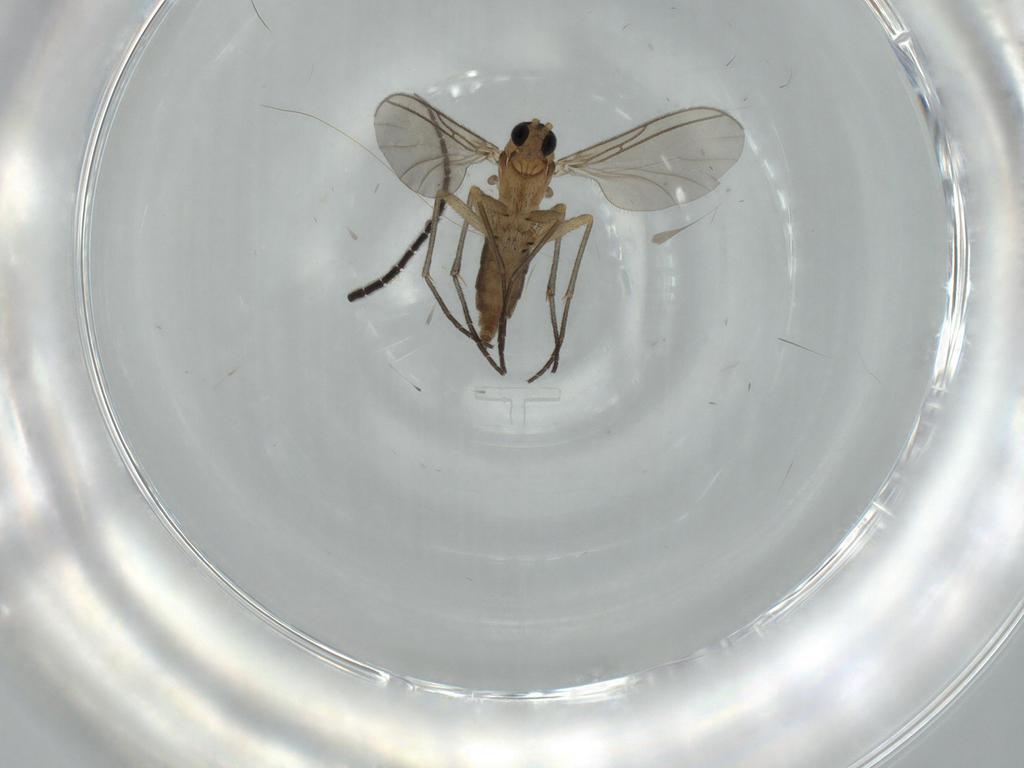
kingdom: Animalia
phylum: Arthropoda
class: Insecta
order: Diptera
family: Sciaridae
